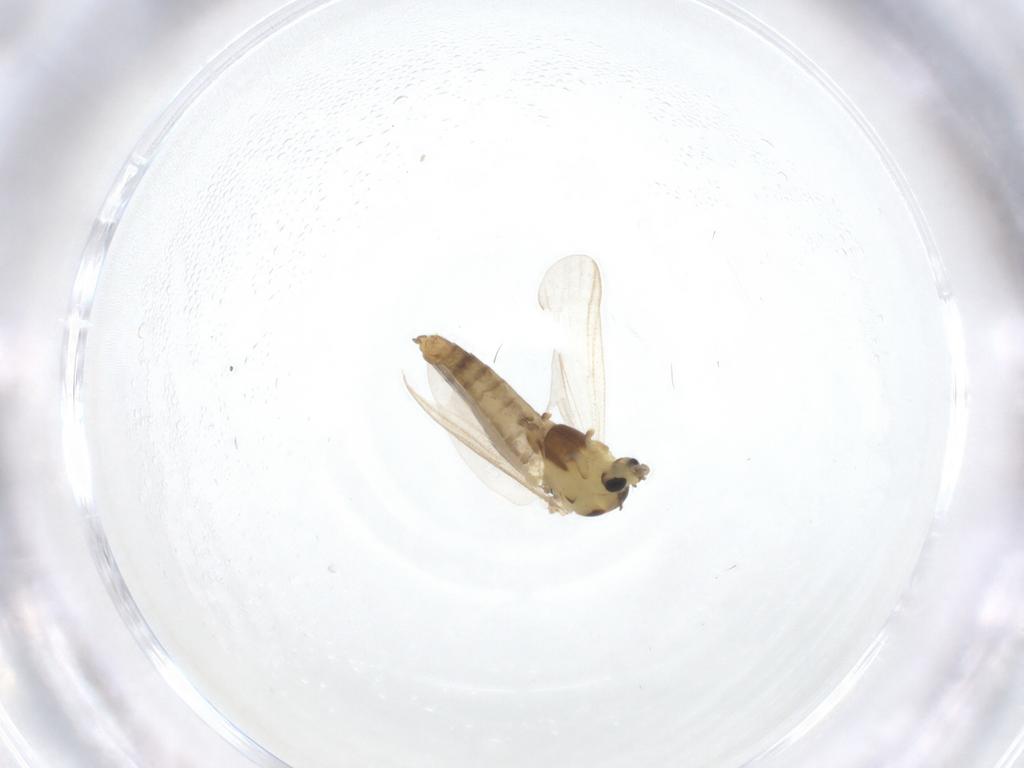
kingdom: Animalia
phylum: Arthropoda
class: Insecta
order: Diptera
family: Chironomidae
